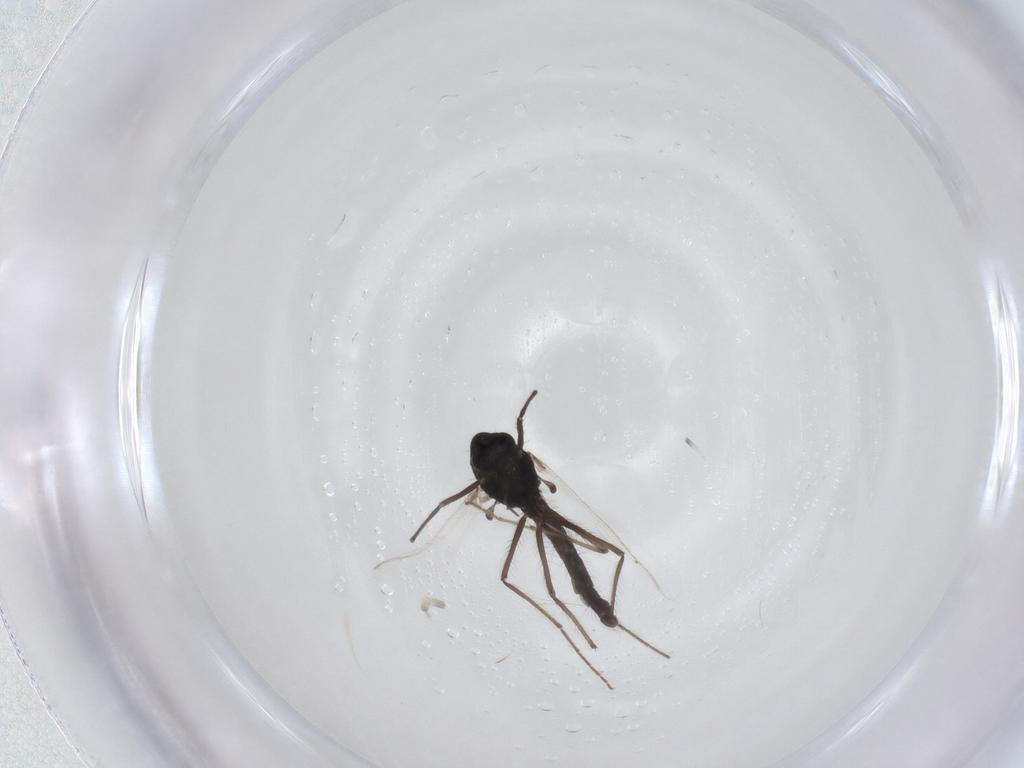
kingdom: Animalia
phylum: Arthropoda
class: Insecta
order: Diptera
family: Chironomidae
